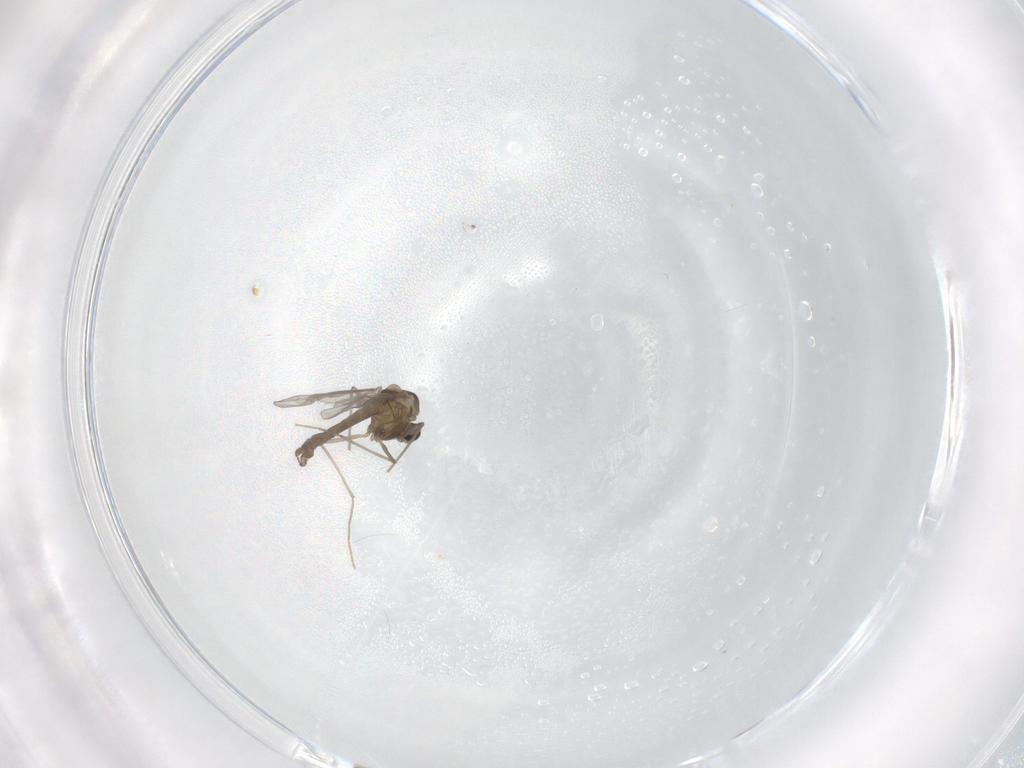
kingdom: Animalia
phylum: Arthropoda
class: Insecta
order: Diptera
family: Chironomidae
